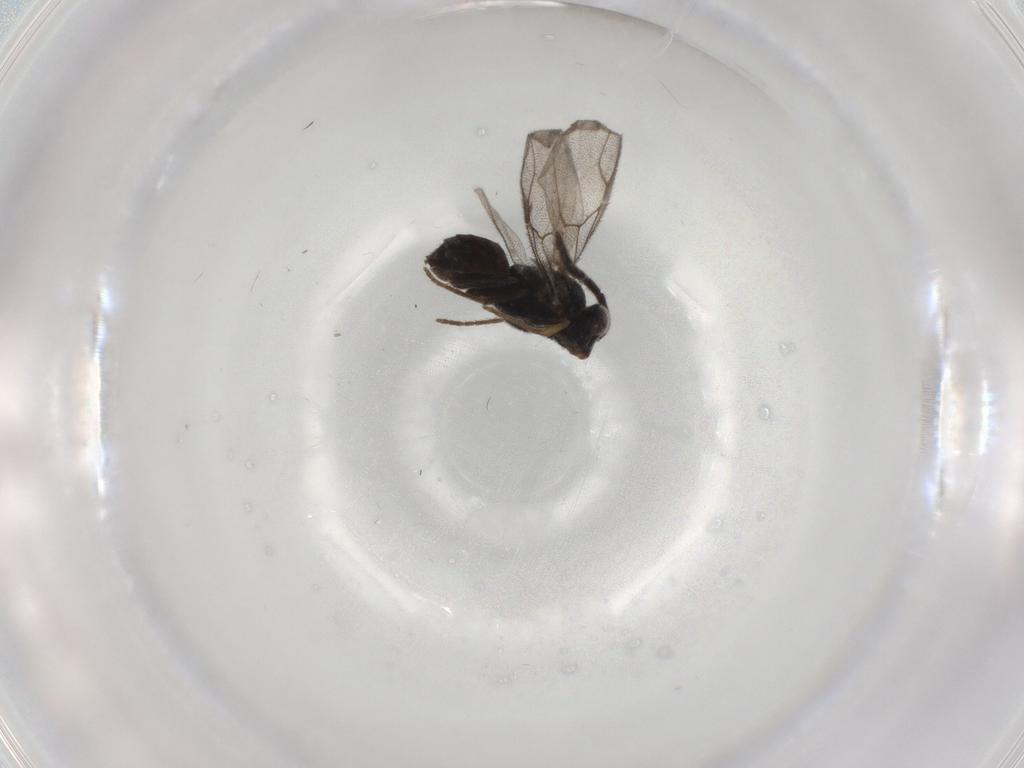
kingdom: Animalia
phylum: Arthropoda
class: Insecta
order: Hymenoptera
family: Dryinidae
